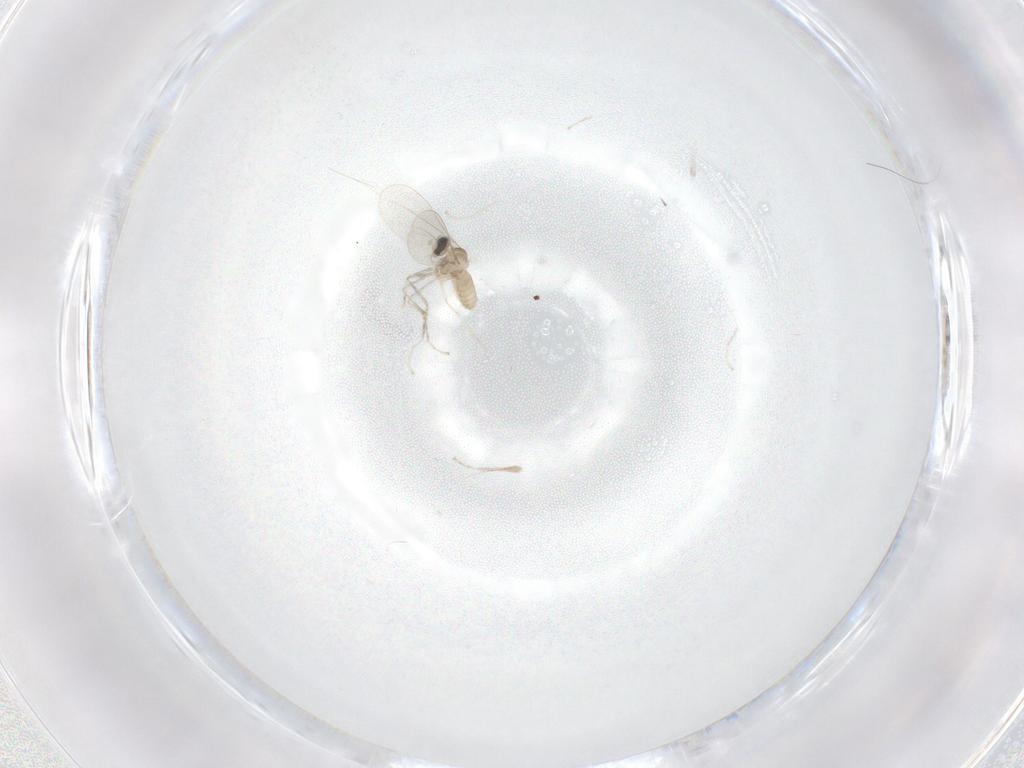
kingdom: Animalia
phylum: Arthropoda
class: Insecta
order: Diptera
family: Cecidomyiidae
